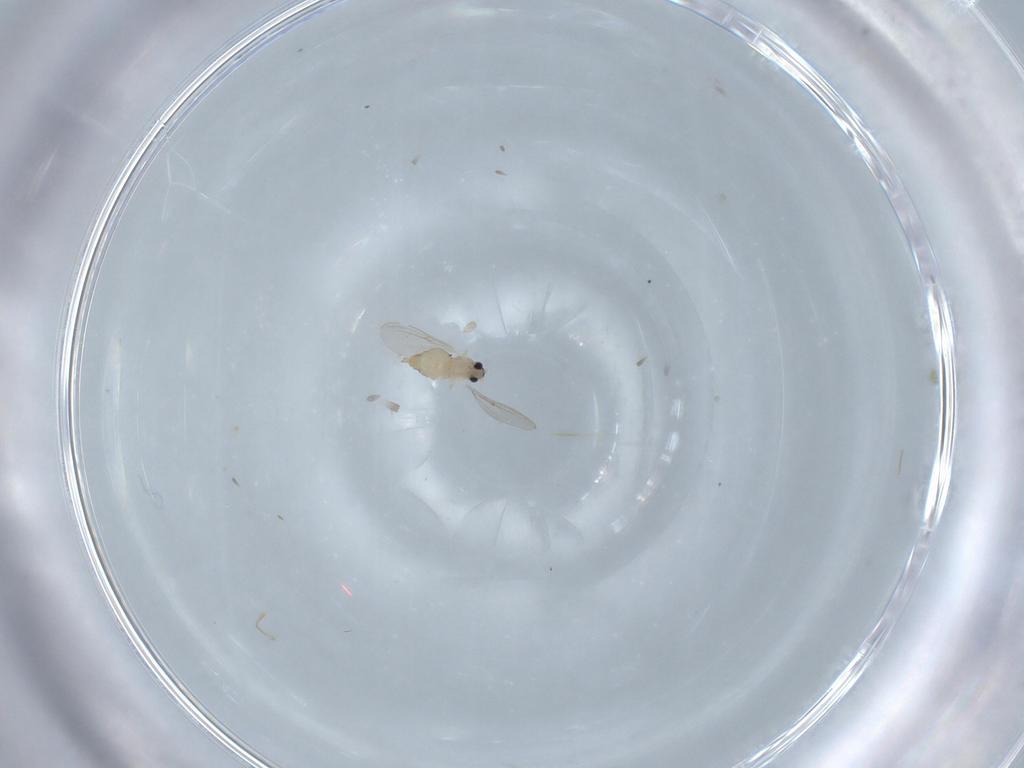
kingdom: Animalia
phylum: Arthropoda
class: Insecta
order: Diptera
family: Cecidomyiidae
